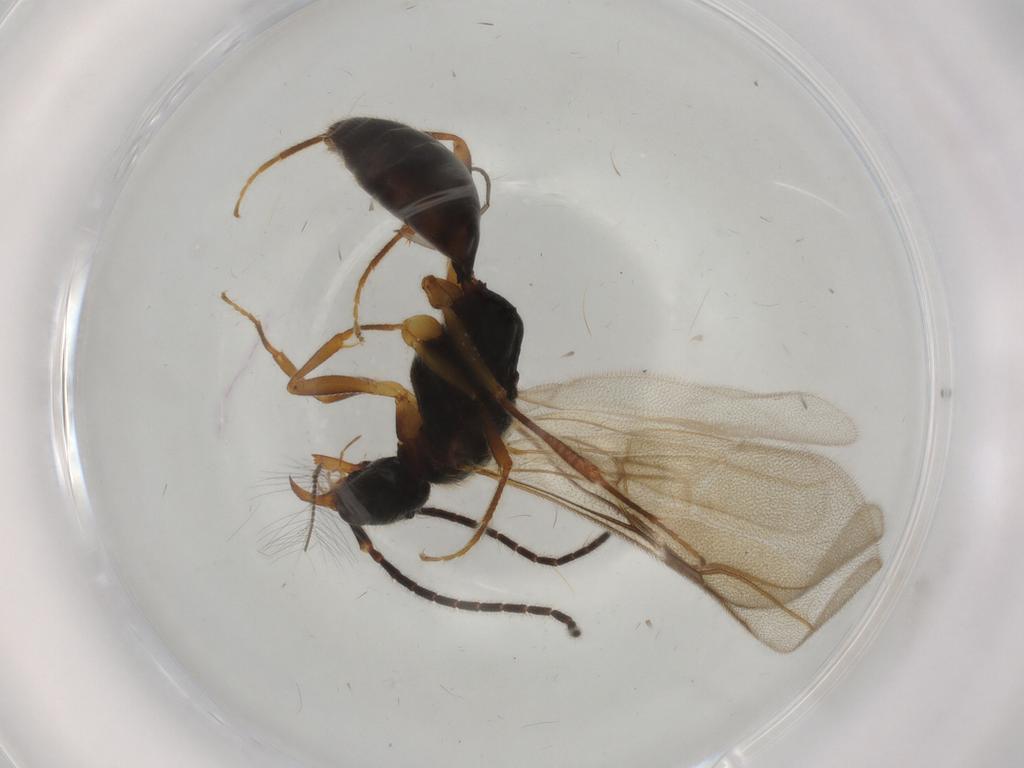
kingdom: Animalia
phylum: Arthropoda
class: Insecta
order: Hymenoptera
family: Bethylidae
